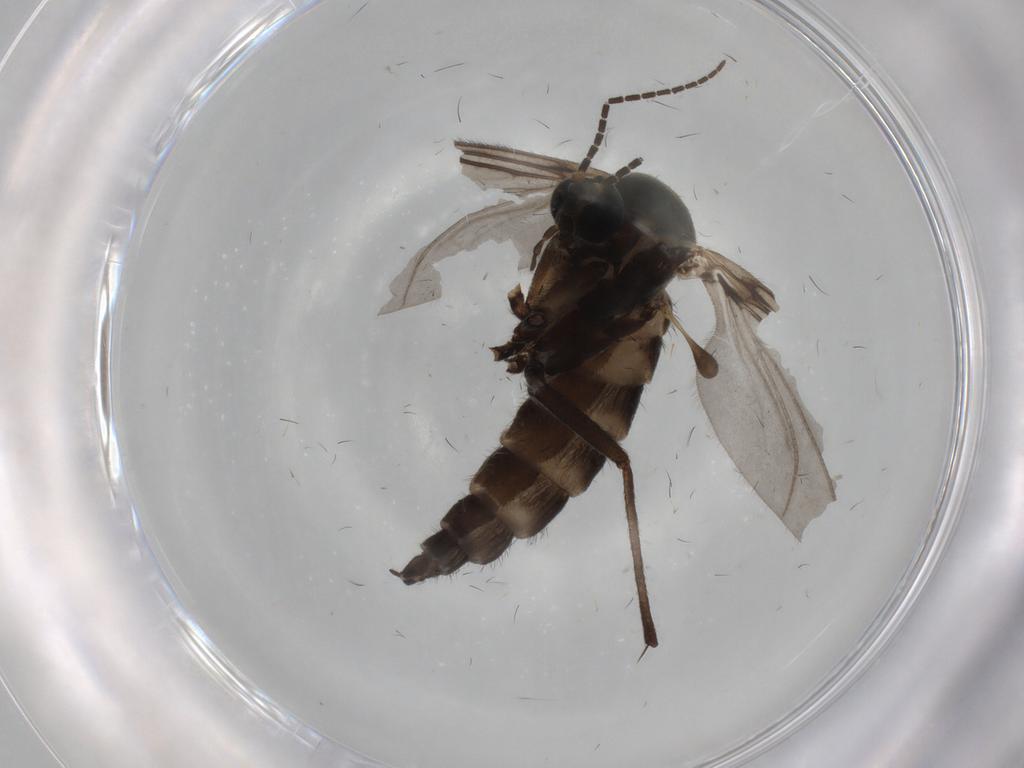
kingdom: Animalia
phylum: Arthropoda
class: Insecta
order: Diptera
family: Sciaridae
